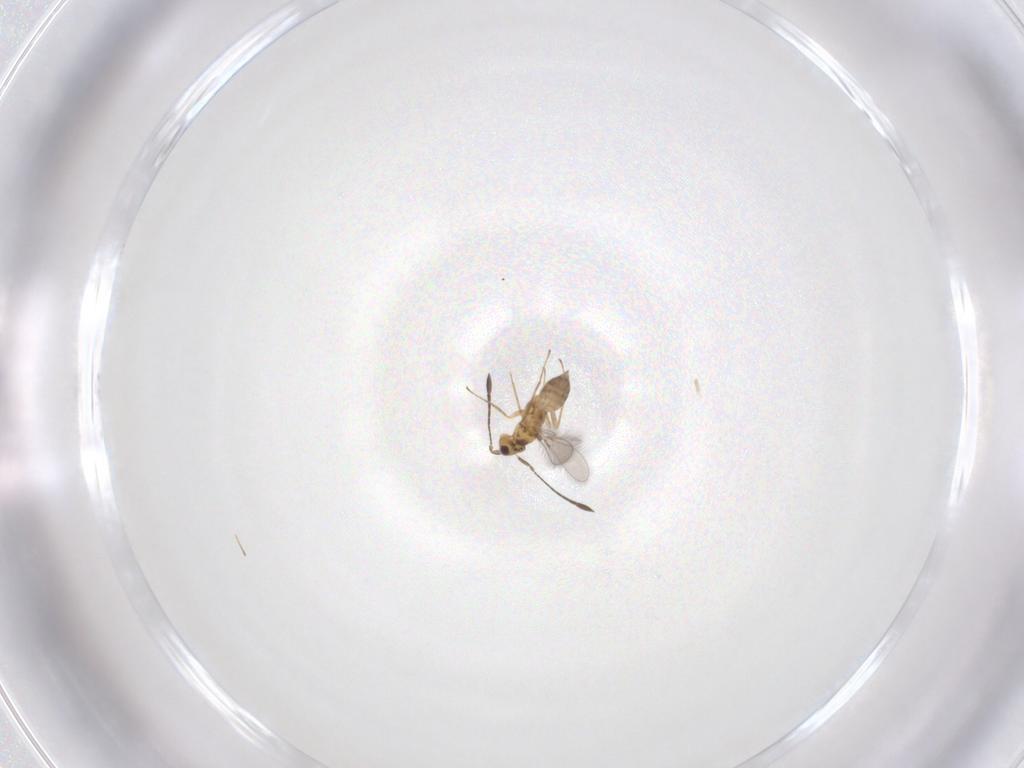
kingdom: Animalia
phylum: Arthropoda
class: Insecta
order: Hymenoptera
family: Mymaridae
